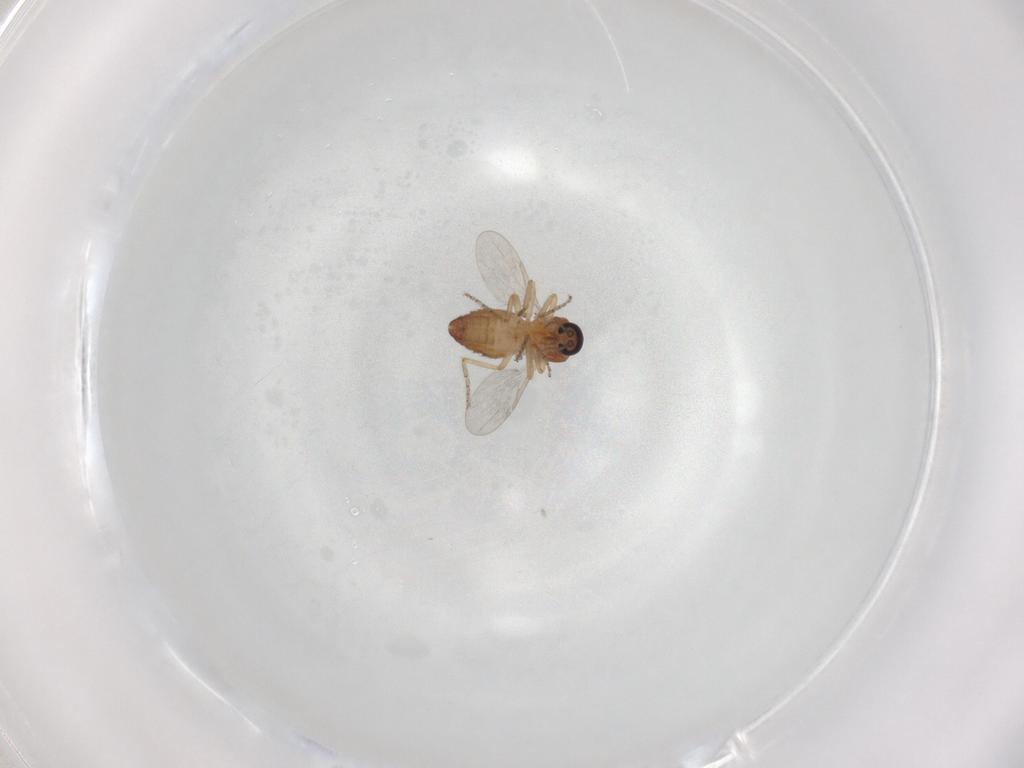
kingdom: Animalia
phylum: Arthropoda
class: Insecta
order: Diptera
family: Ceratopogonidae
